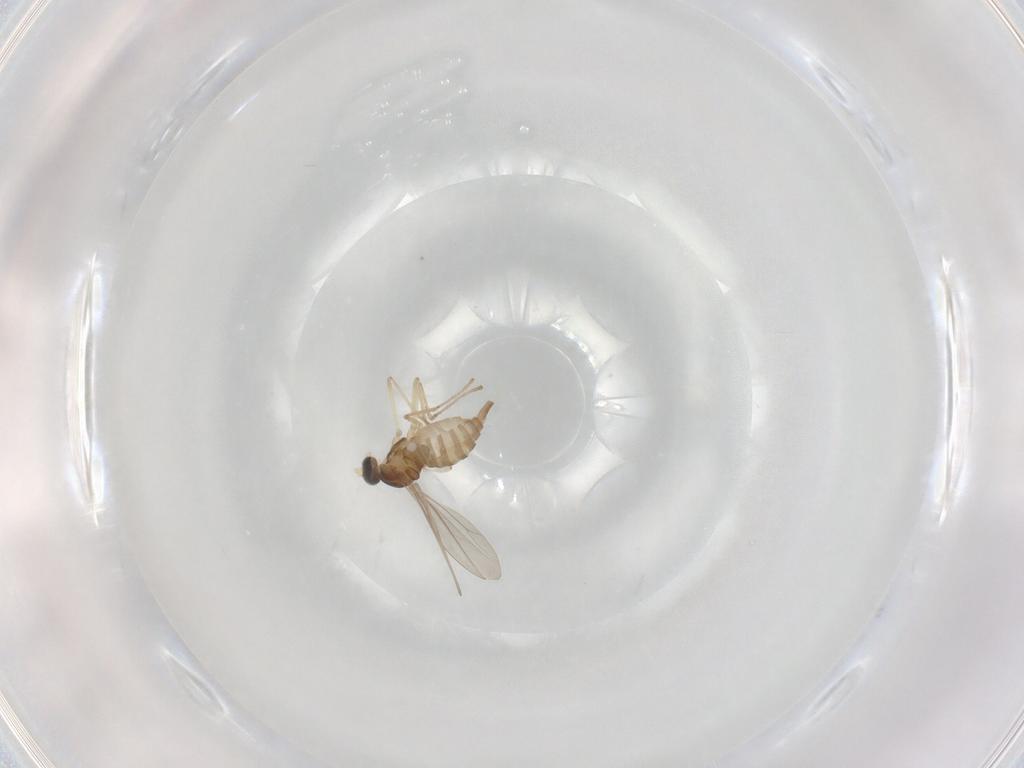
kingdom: Animalia
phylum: Arthropoda
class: Insecta
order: Diptera
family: Cecidomyiidae
